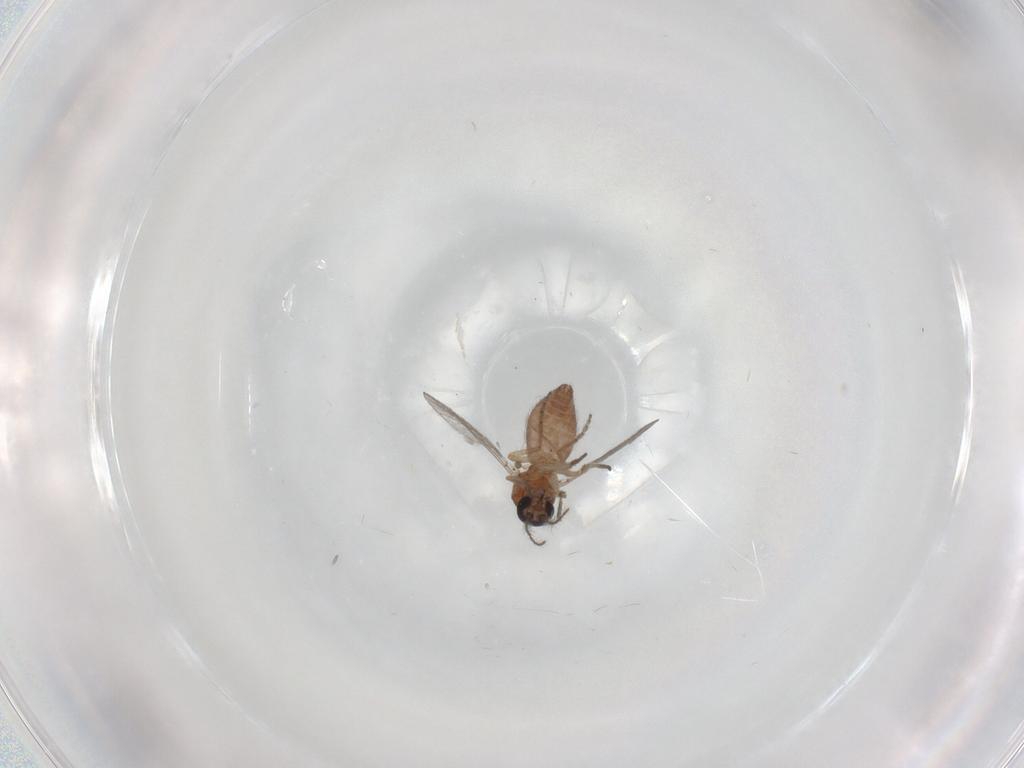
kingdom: Animalia
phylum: Arthropoda
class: Insecta
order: Diptera
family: Ceratopogonidae
